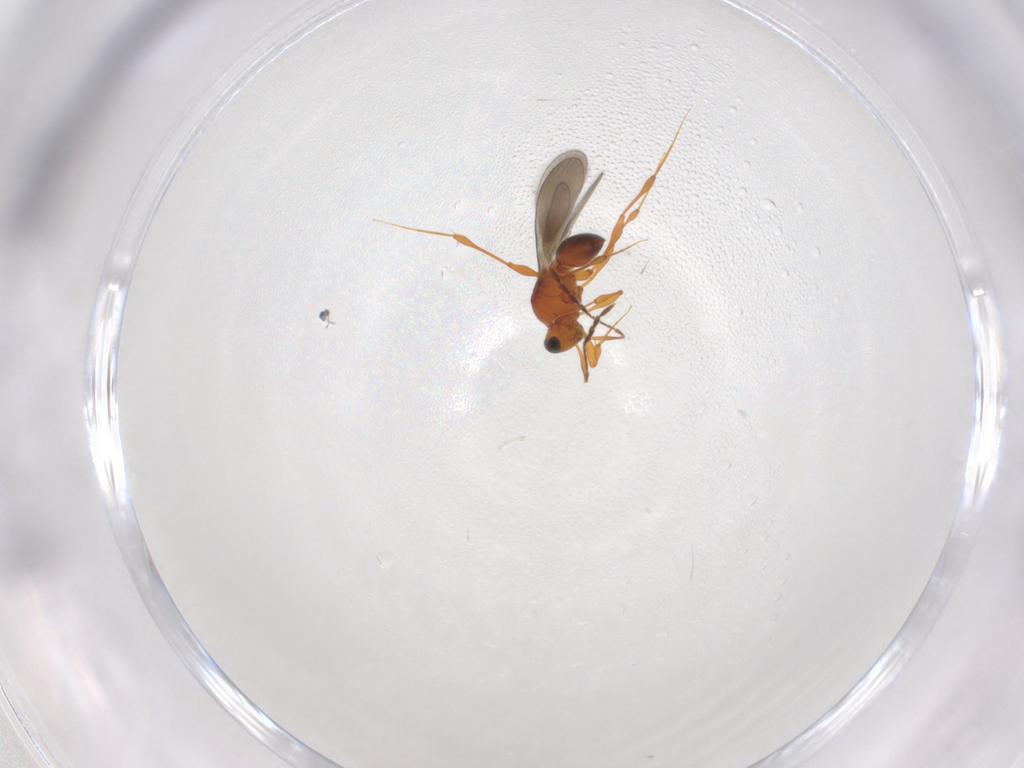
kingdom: Animalia
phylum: Arthropoda
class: Insecta
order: Hymenoptera
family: Platygastridae
